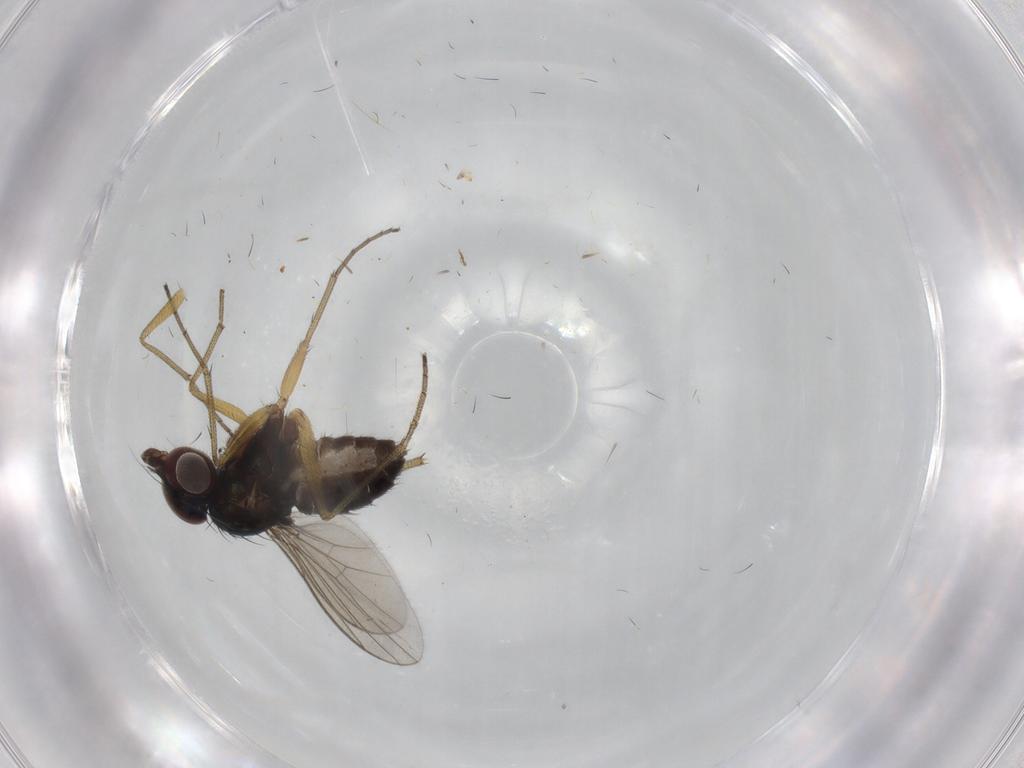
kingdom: Animalia
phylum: Arthropoda
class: Insecta
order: Diptera
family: Dolichopodidae
